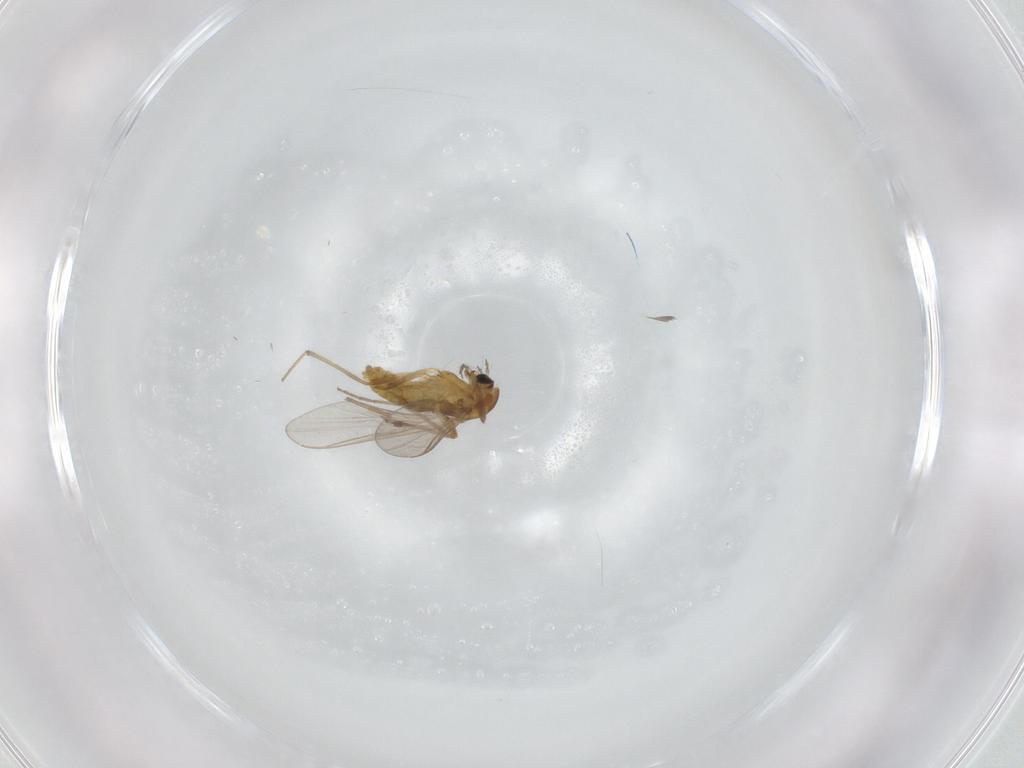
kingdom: Animalia
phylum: Arthropoda
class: Insecta
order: Diptera
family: Chironomidae
